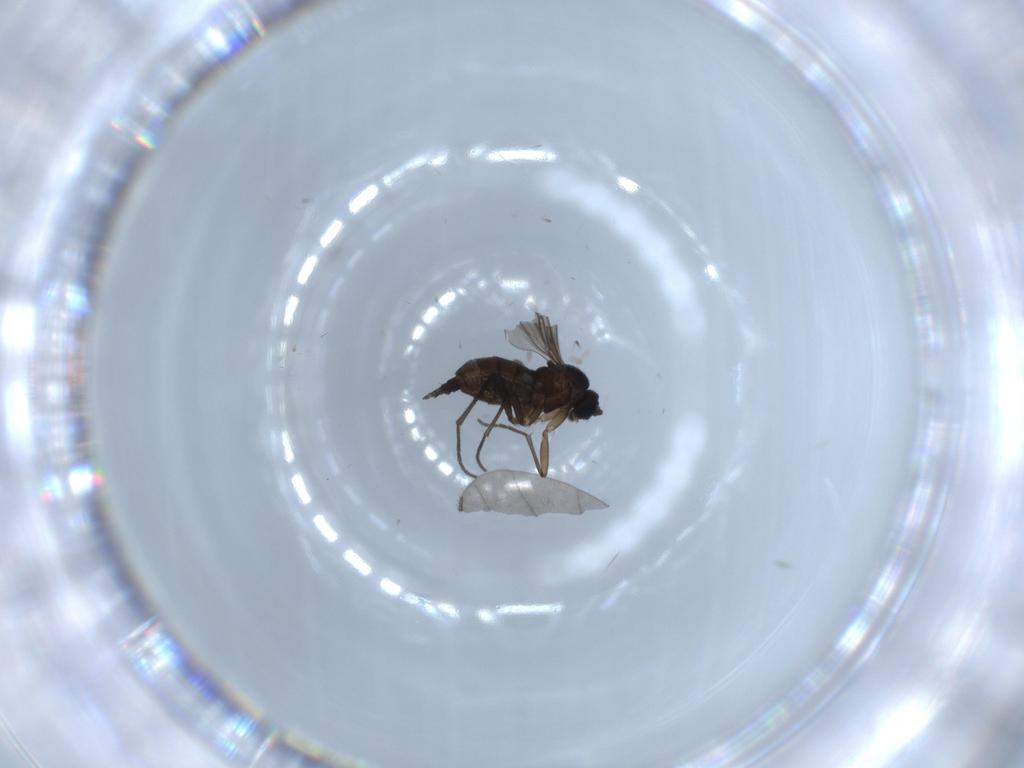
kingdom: Animalia
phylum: Arthropoda
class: Insecta
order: Diptera
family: Sciaridae
